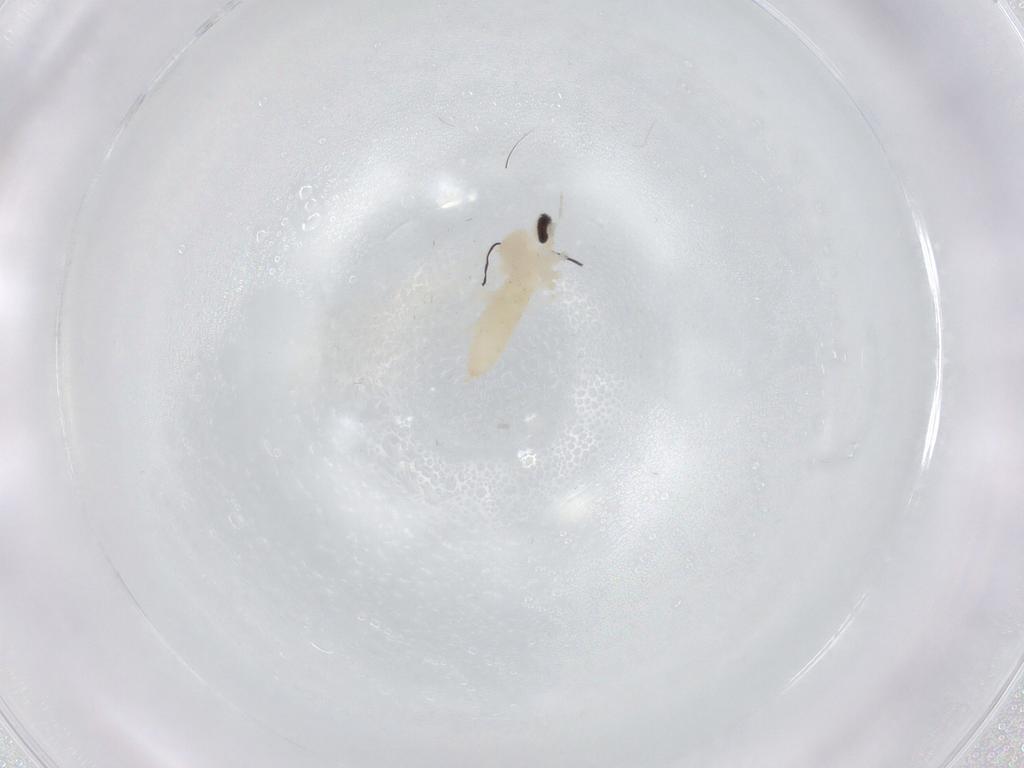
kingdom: Animalia
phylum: Arthropoda
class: Insecta
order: Diptera
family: Cecidomyiidae
